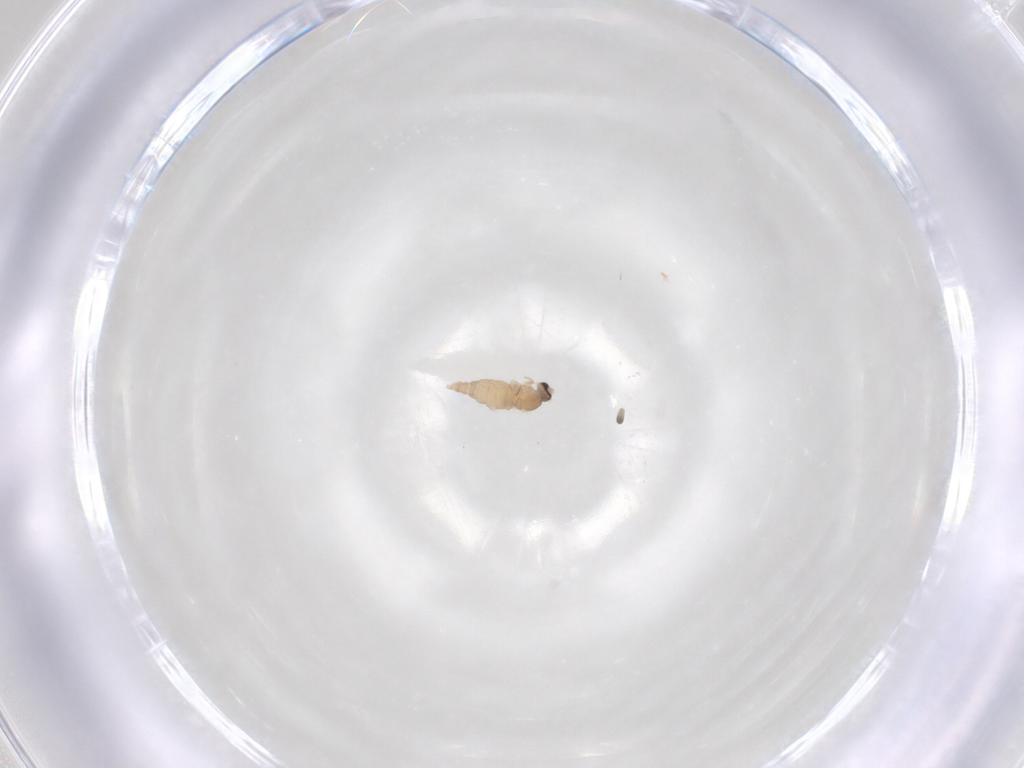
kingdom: Animalia
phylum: Arthropoda
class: Insecta
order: Diptera
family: Cecidomyiidae
